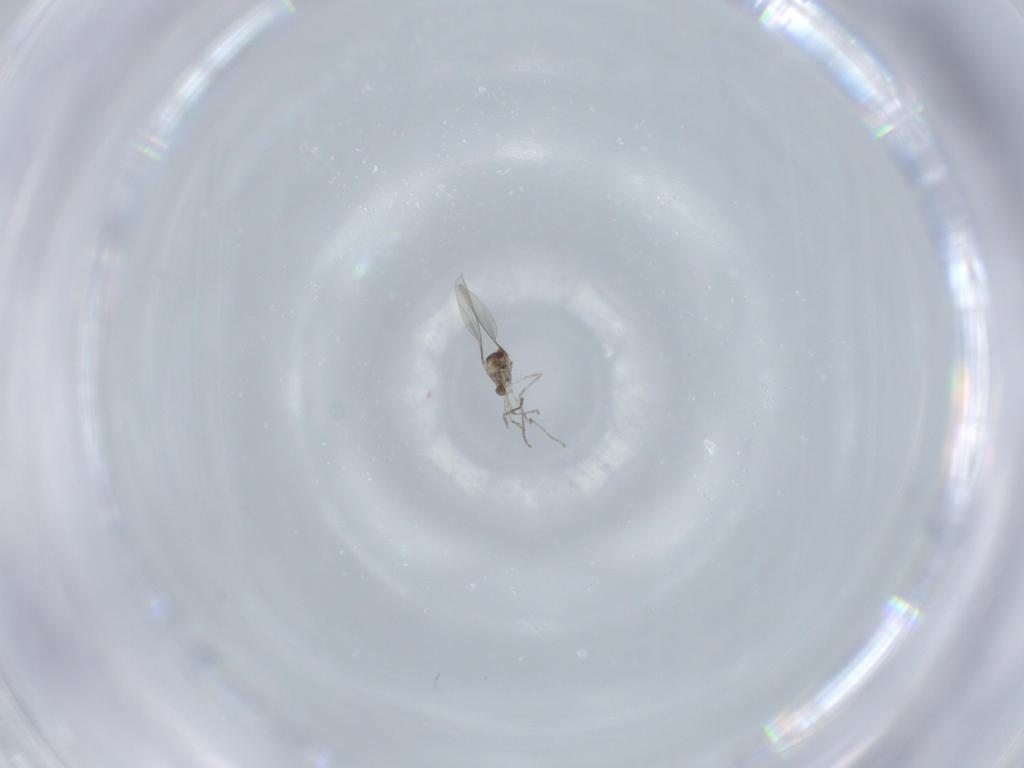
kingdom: Animalia
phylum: Arthropoda
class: Insecta
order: Diptera
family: Cecidomyiidae
